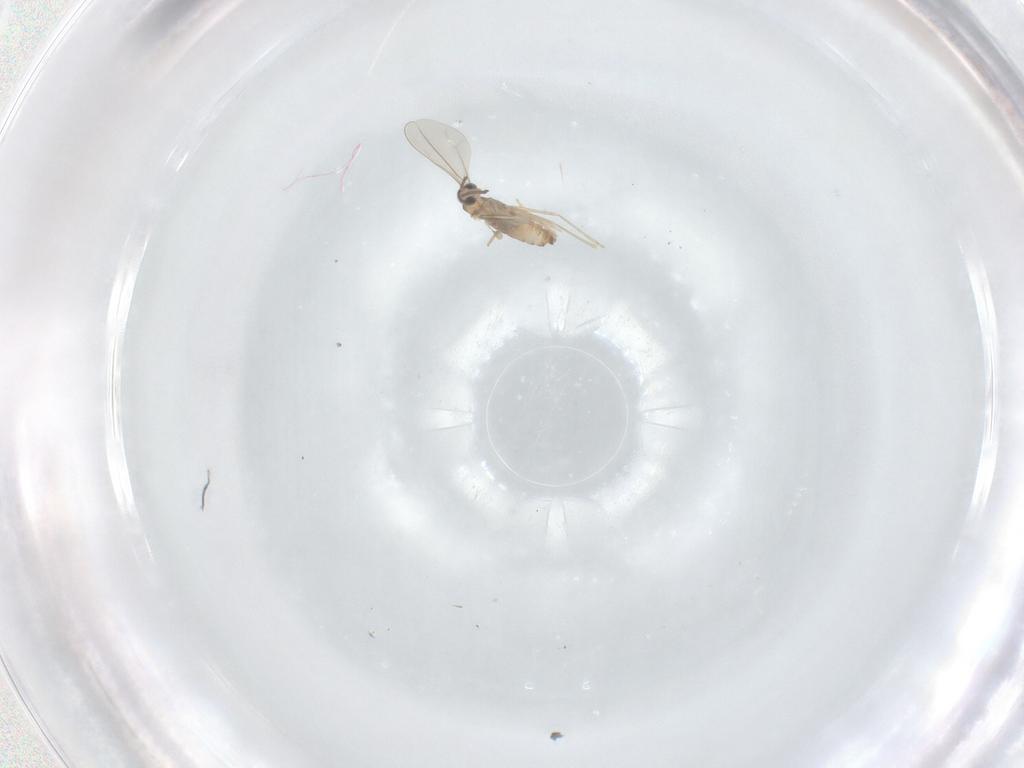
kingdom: Animalia
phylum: Arthropoda
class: Insecta
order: Diptera
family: Cecidomyiidae
